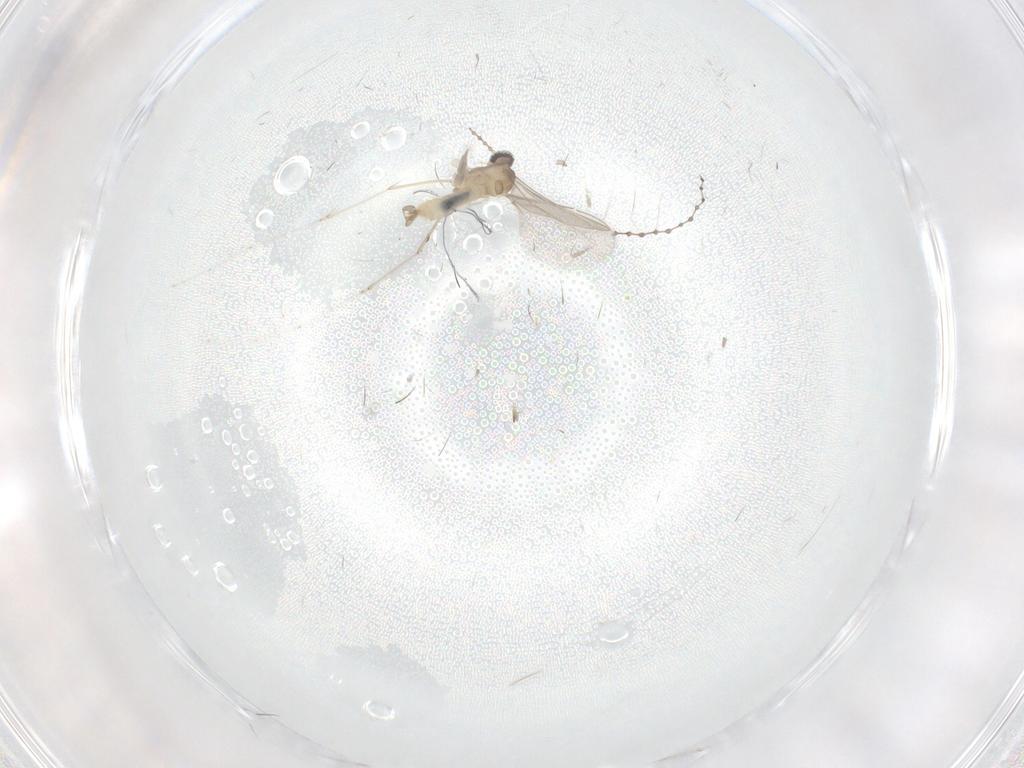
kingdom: Animalia
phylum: Arthropoda
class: Insecta
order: Diptera
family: Cecidomyiidae
